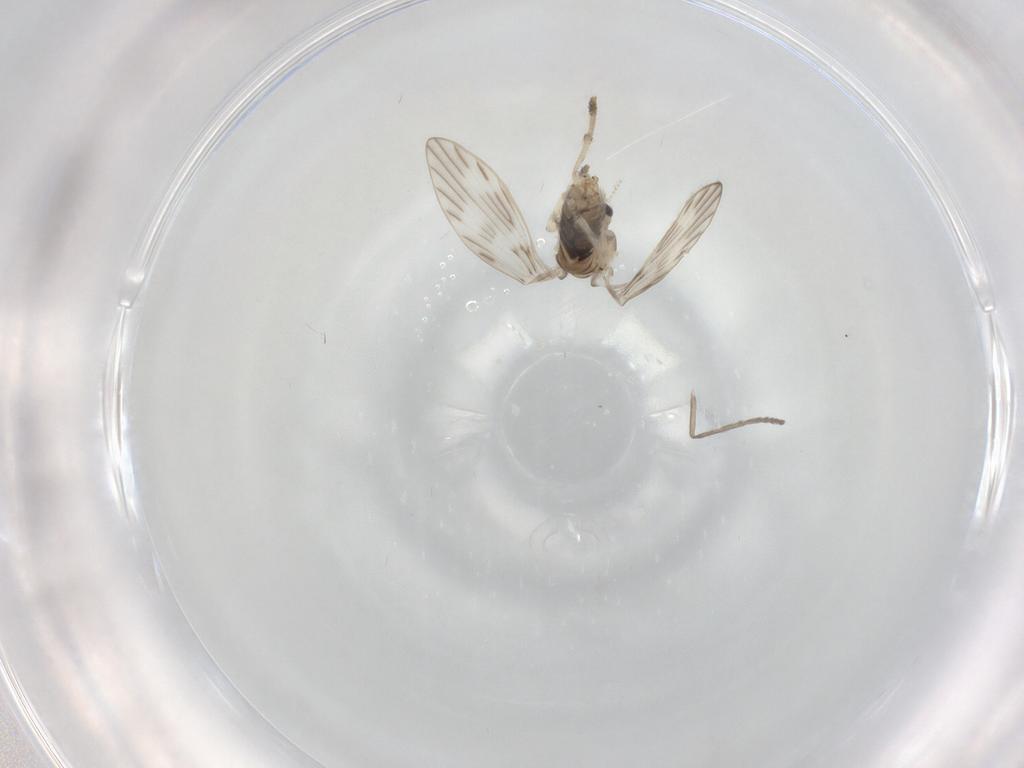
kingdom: Animalia
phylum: Arthropoda
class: Insecta
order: Diptera
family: Psychodidae
